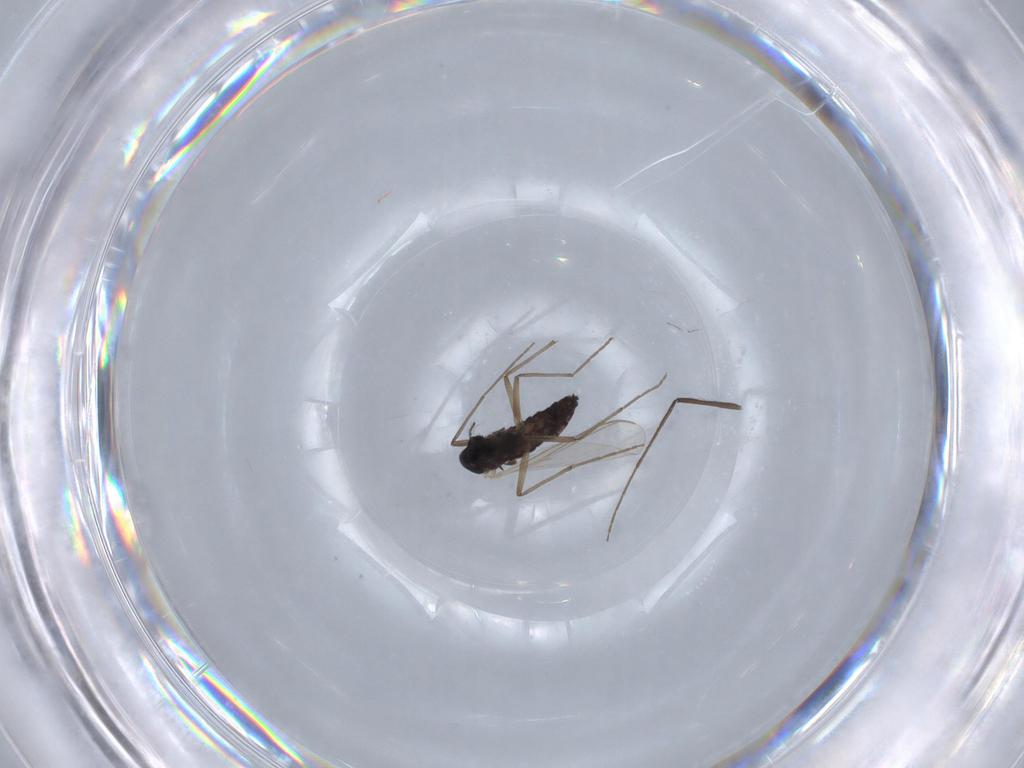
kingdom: Animalia
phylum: Arthropoda
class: Insecta
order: Diptera
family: Chironomidae
